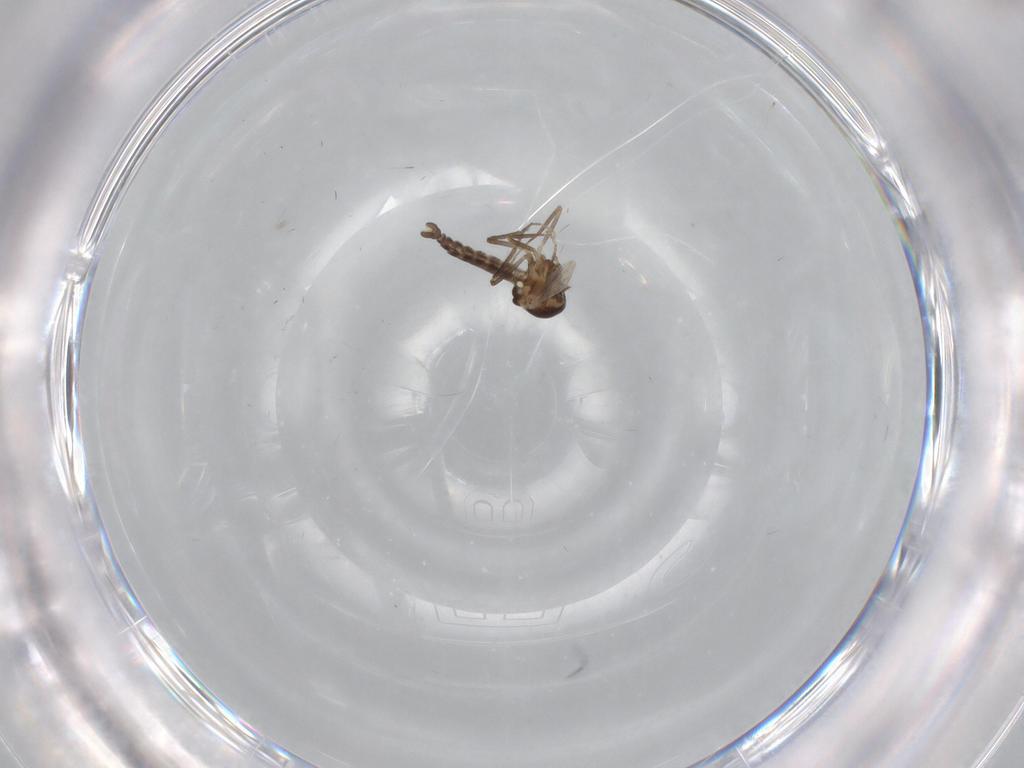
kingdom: Animalia
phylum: Arthropoda
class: Insecta
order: Diptera
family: Ceratopogonidae
